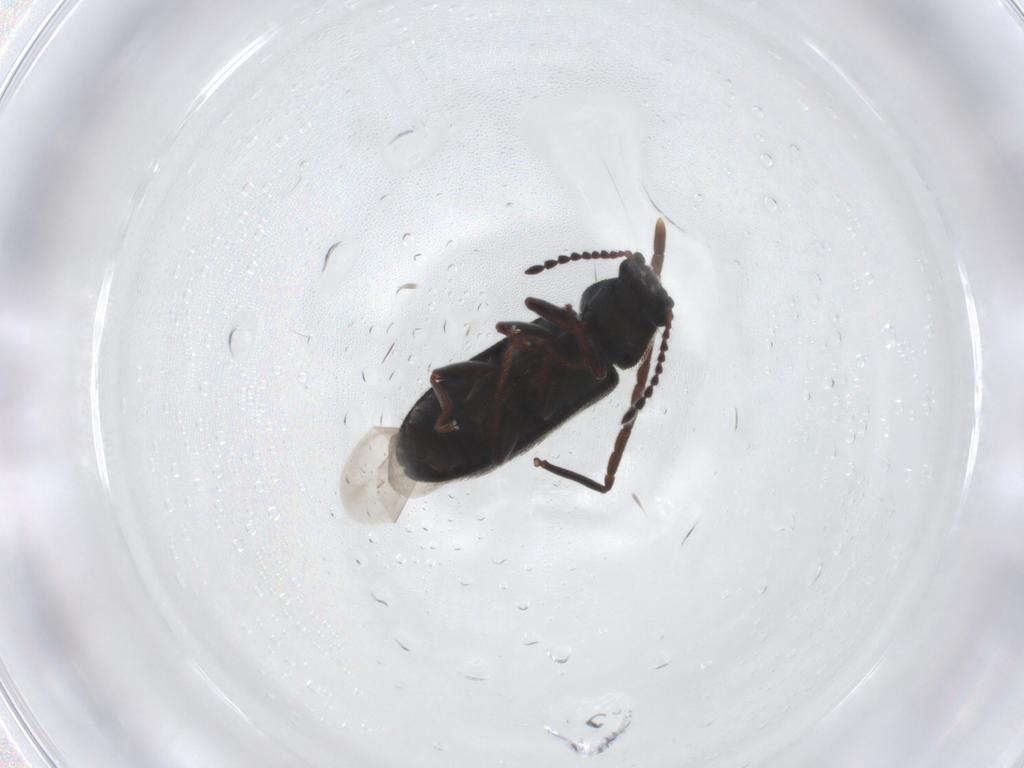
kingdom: Animalia
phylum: Arthropoda
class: Insecta
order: Coleoptera
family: Melyridae
